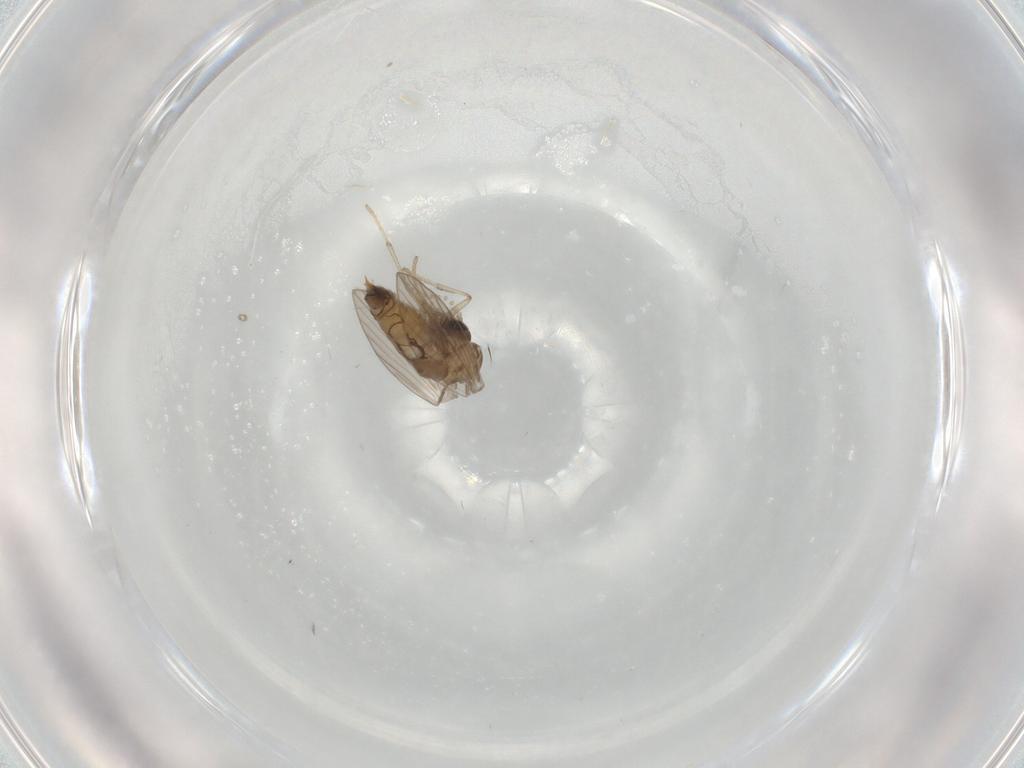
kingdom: Animalia
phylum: Arthropoda
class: Insecta
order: Diptera
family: Psychodidae
